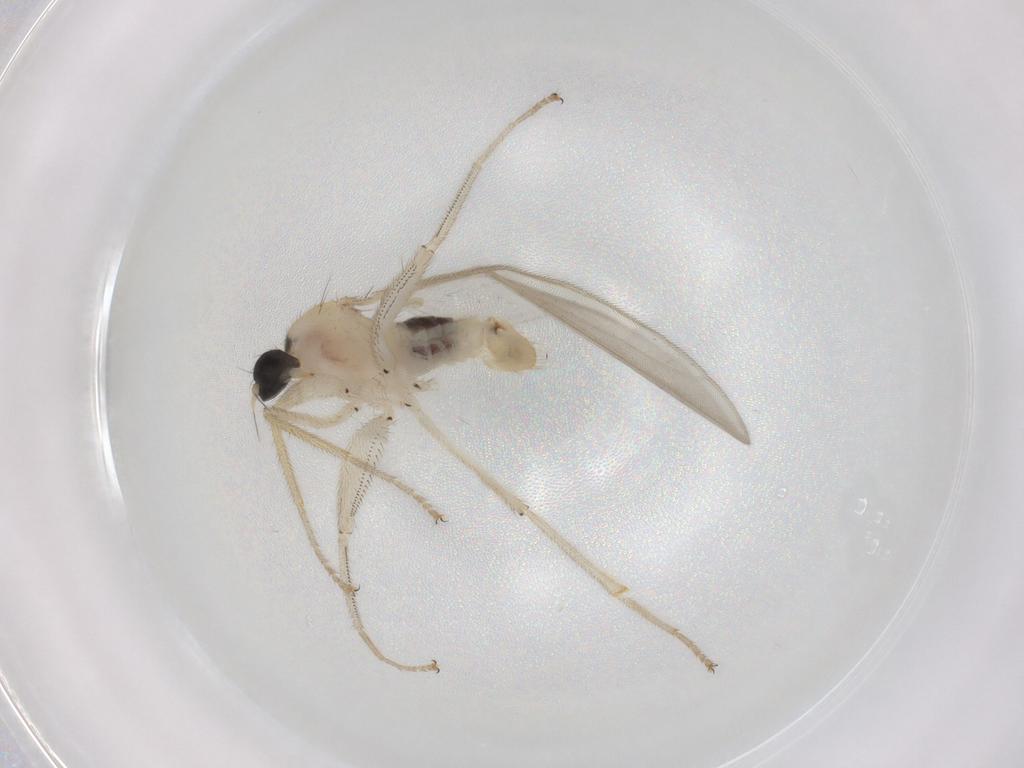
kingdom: Animalia
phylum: Arthropoda
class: Insecta
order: Diptera
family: Hybotidae
